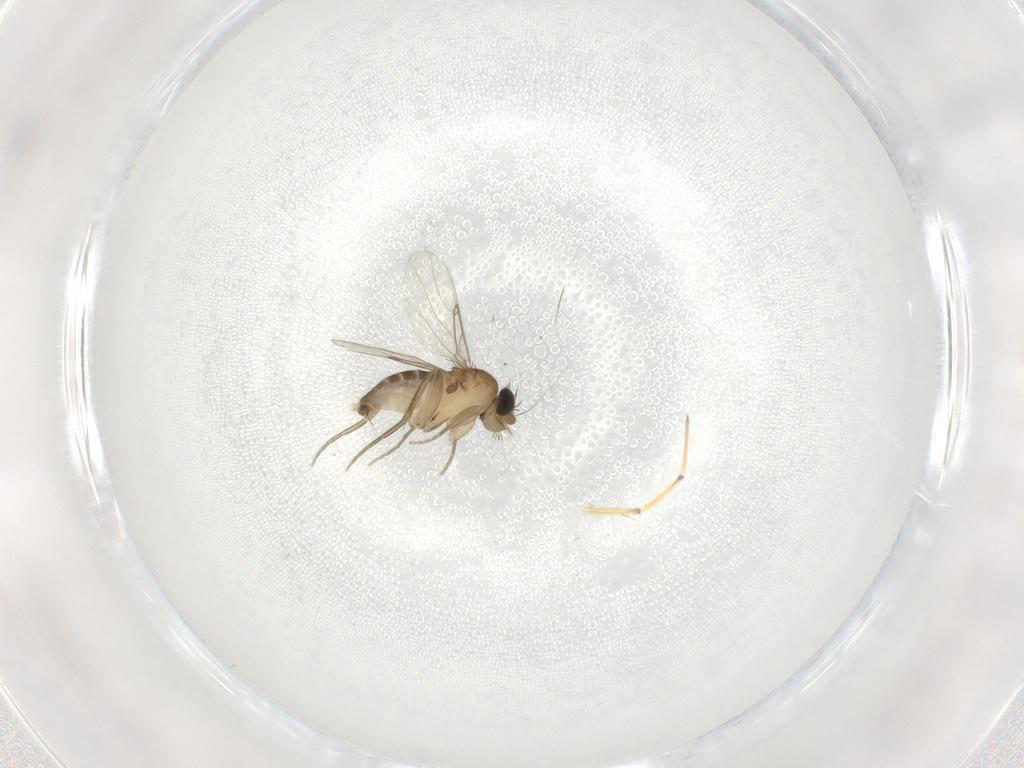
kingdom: Animalia
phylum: Arthropoda
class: Insecta
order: Diptera
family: Phoridae
